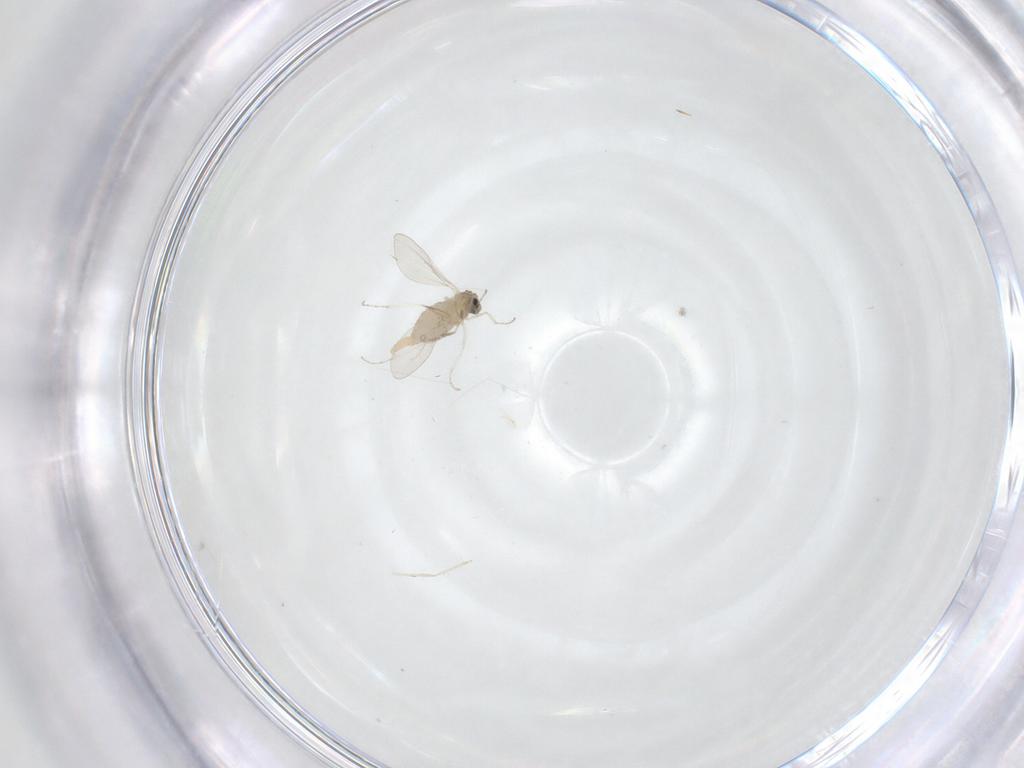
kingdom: Animalia
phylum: Arthropoda
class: Insecta
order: Diptera
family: Cecidomyiidae
